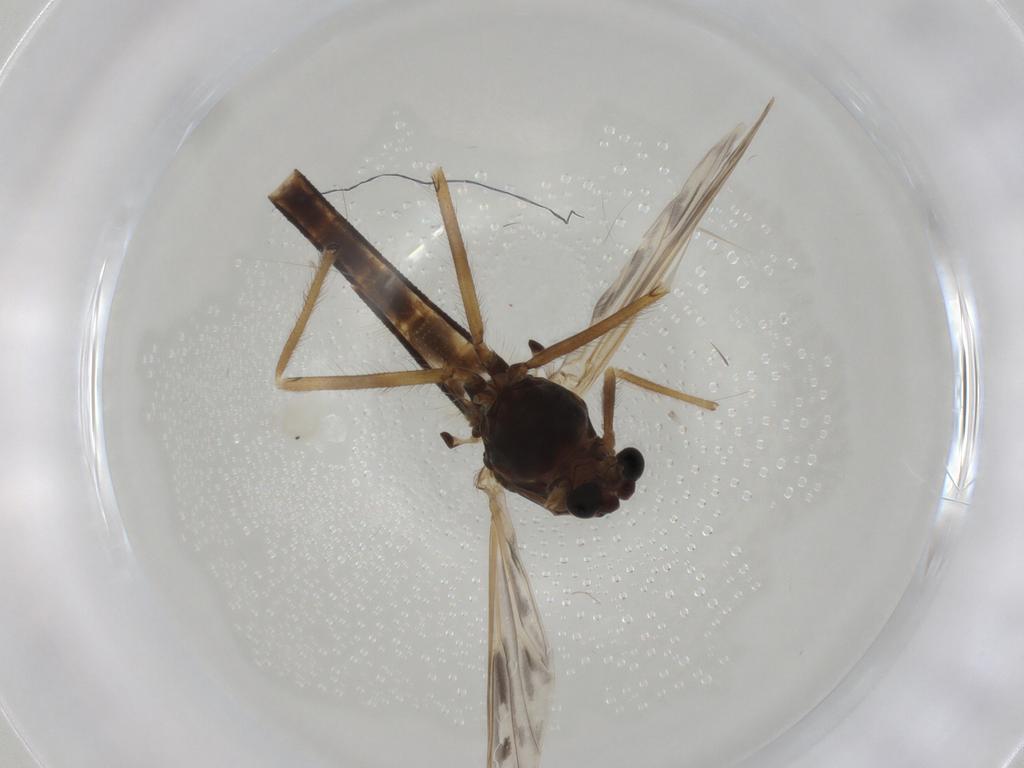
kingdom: Animalia
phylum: Arthropoda
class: Insecta
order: Diptera
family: Chironomidae
